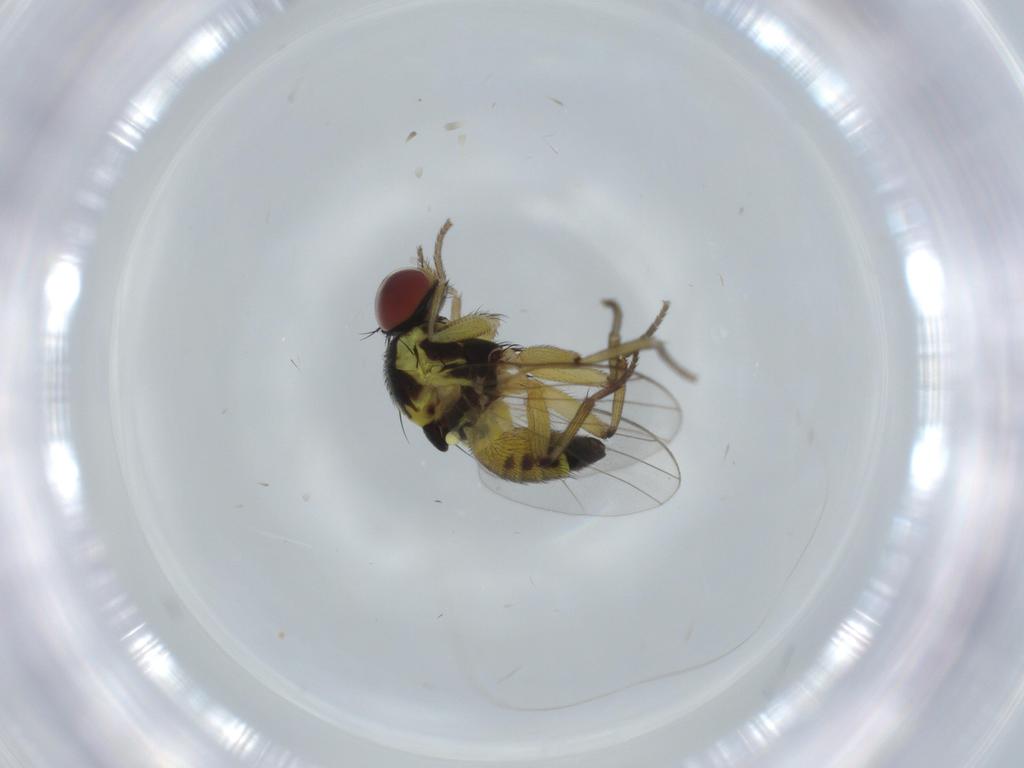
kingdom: Animalia
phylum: Arthropoda
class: Insecta
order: Diptera
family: Agromyzidae
